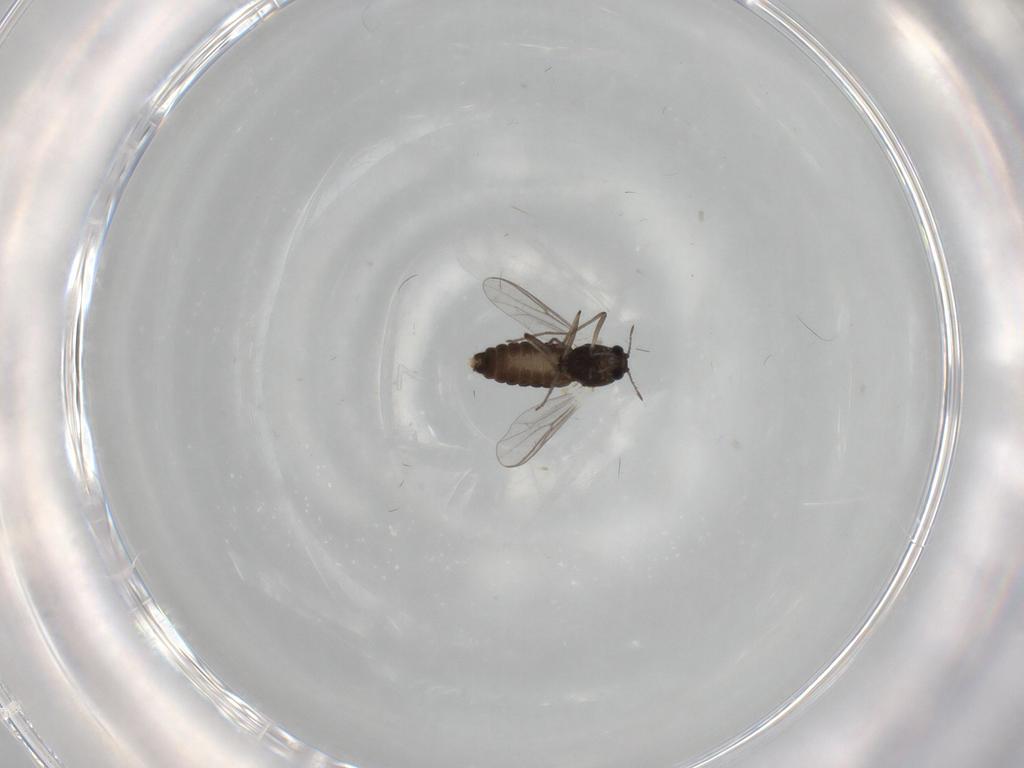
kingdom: Animalia
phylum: Arthropoda
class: Insecta
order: Diptera
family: Chironomidae
